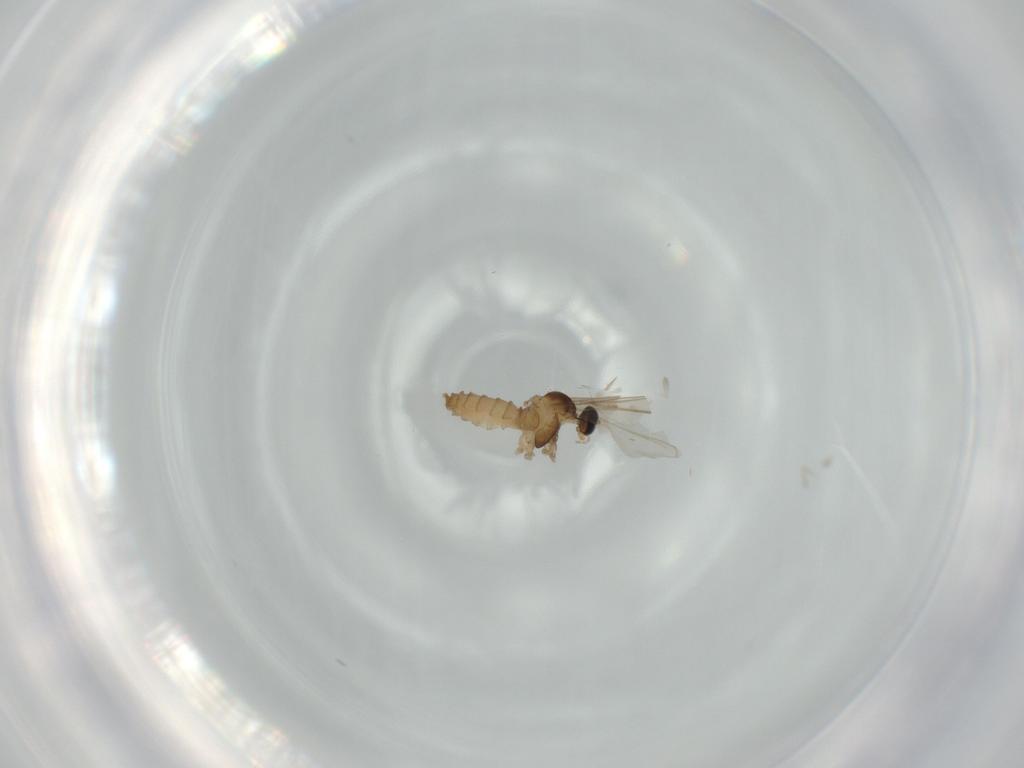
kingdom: Animalia
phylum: Arthropoda
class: Insecta
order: Diptera
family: Cecidomyiidae
